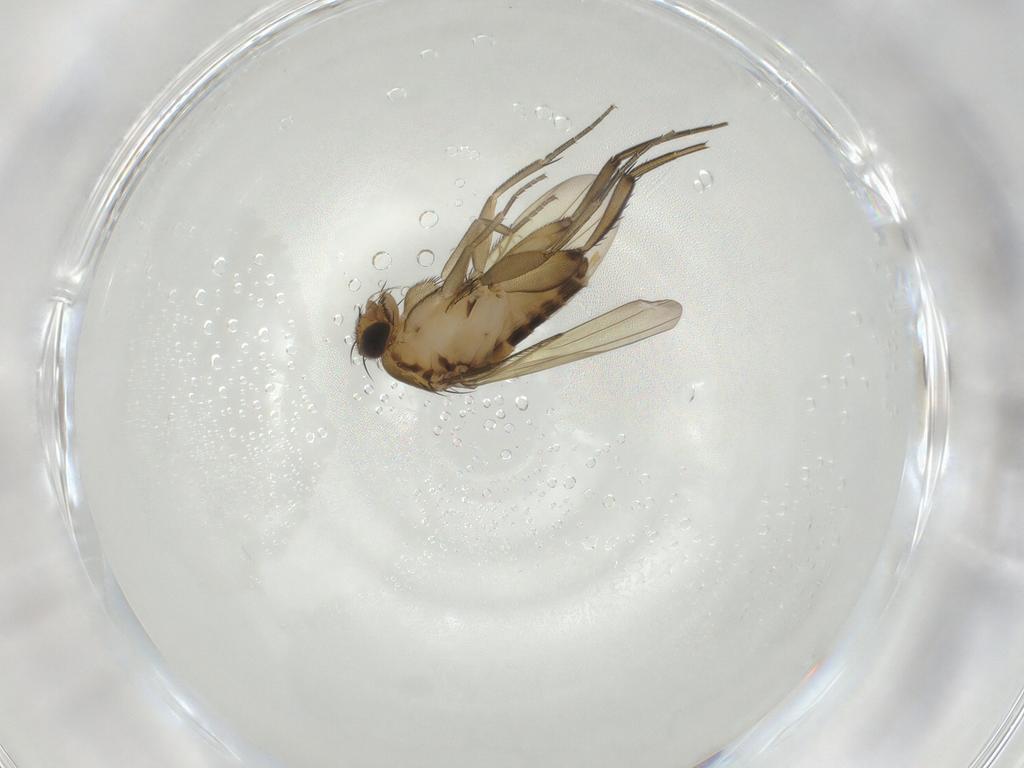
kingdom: Animalia
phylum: Arthropoda
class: Insecta
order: Diptera
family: Phoridae
